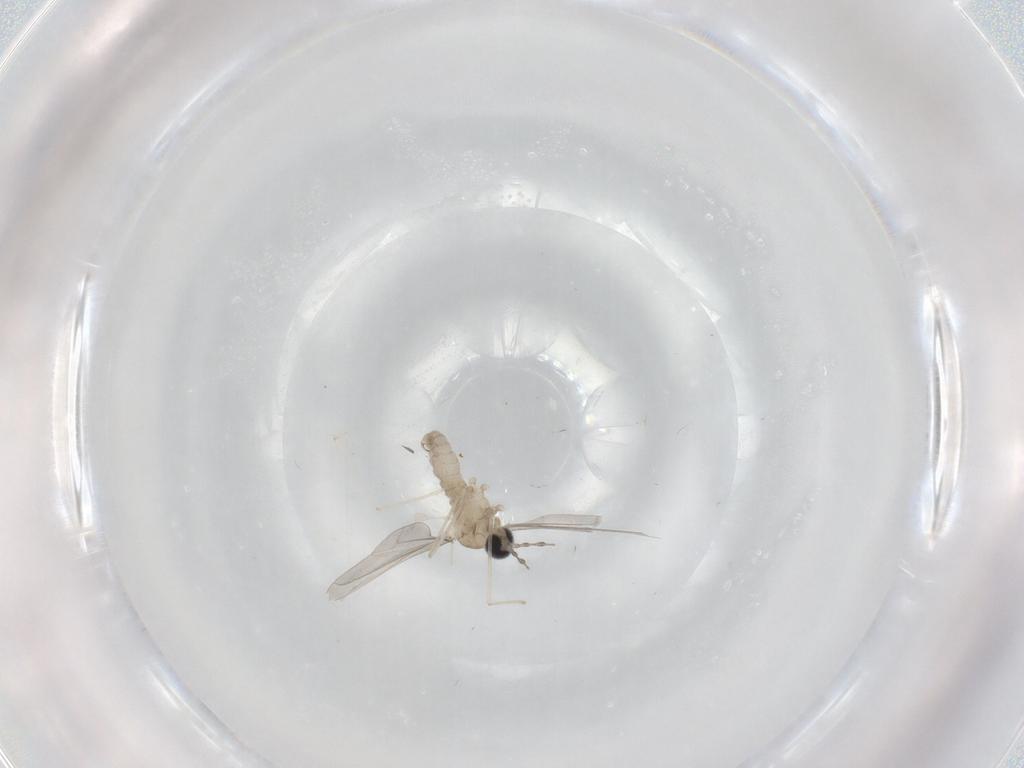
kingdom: Animalia
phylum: Arthropoda
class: Insecta
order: Diptera
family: Cecidomyiidae
